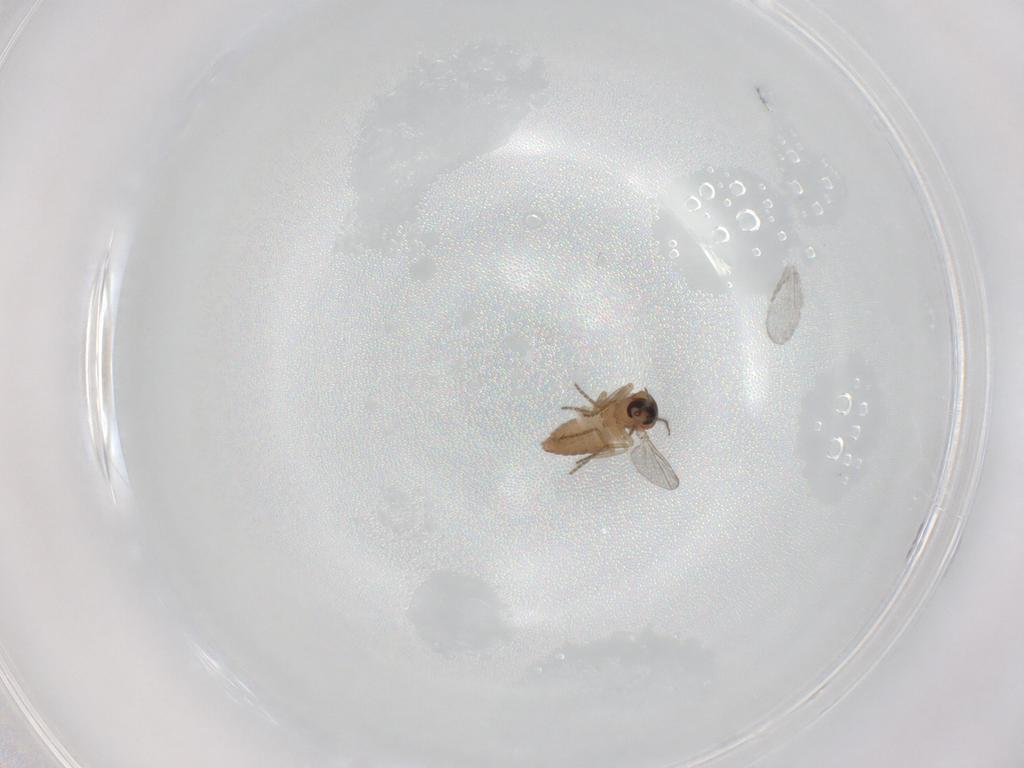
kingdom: Animalia
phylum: Arthropoda
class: Insecta
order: Diptera
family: Ceratopogonidae
